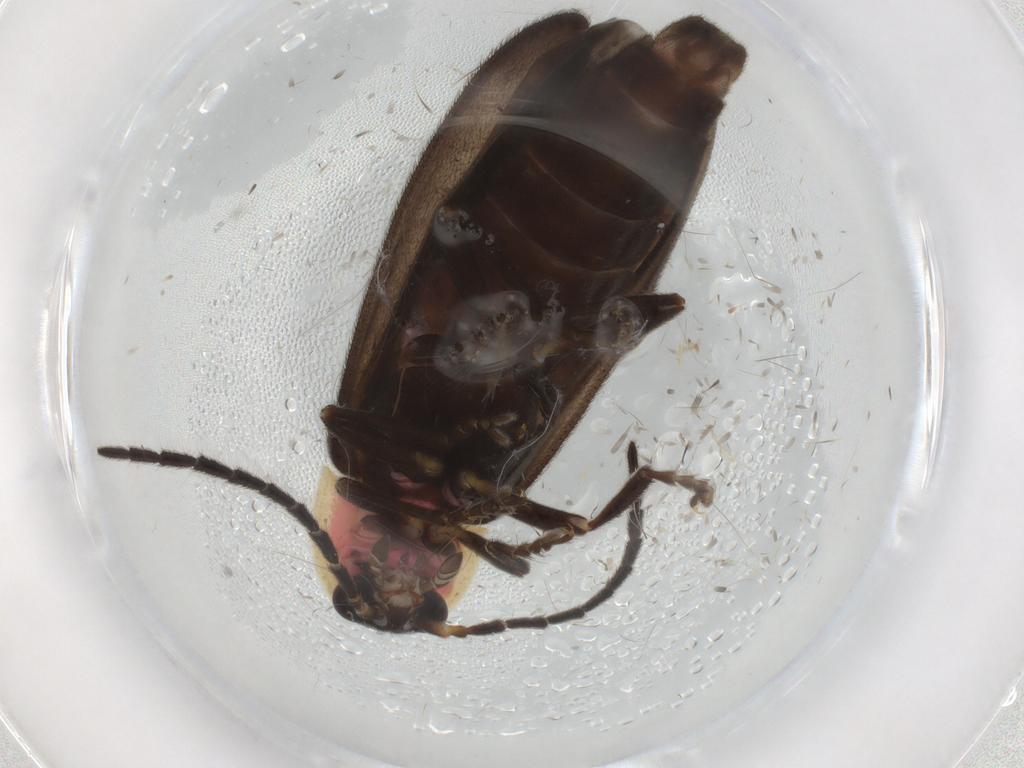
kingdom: Animalia
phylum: Arthropoda
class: Insecta
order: Coleoptera
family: Lampyridae
